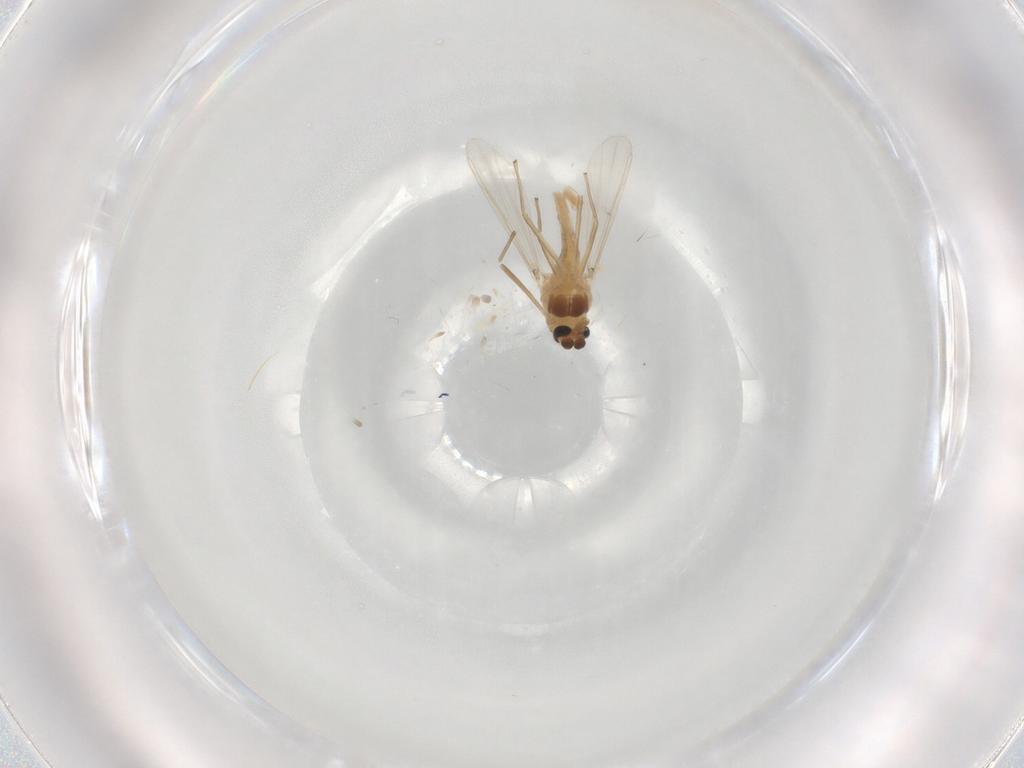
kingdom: Animalia
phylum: Arthropoda
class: Insecta
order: Diptera
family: Chironomidae
